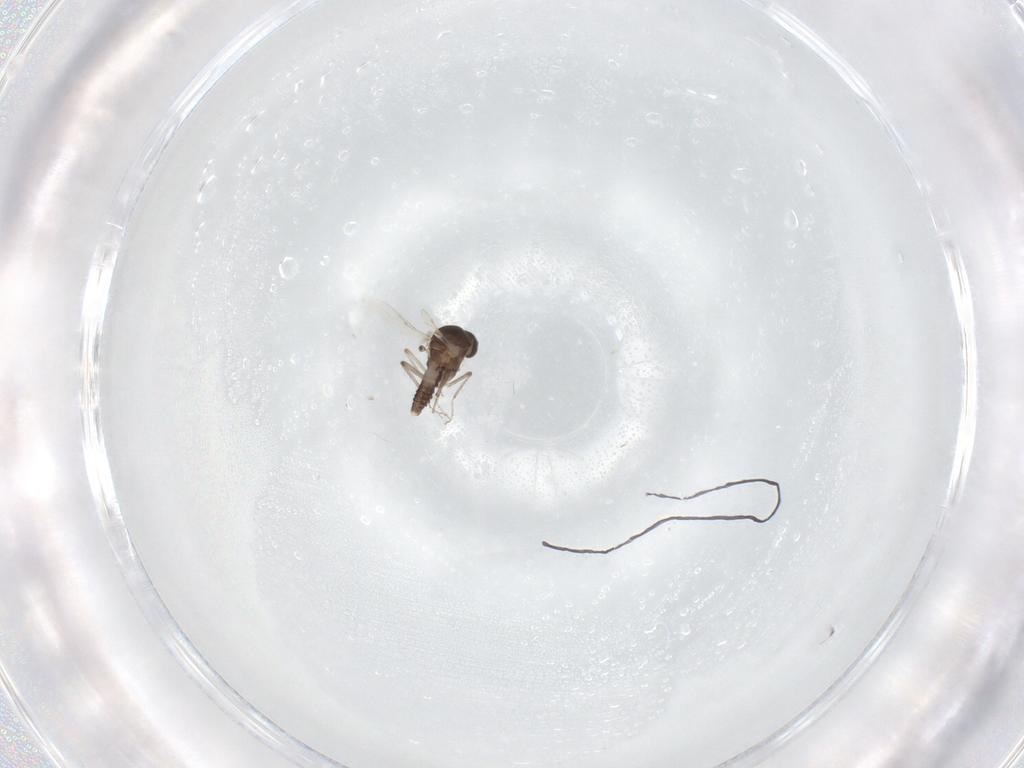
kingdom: Animalia
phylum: Arthropoda
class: Insecta
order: Diptera
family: Ceratopogonidae
